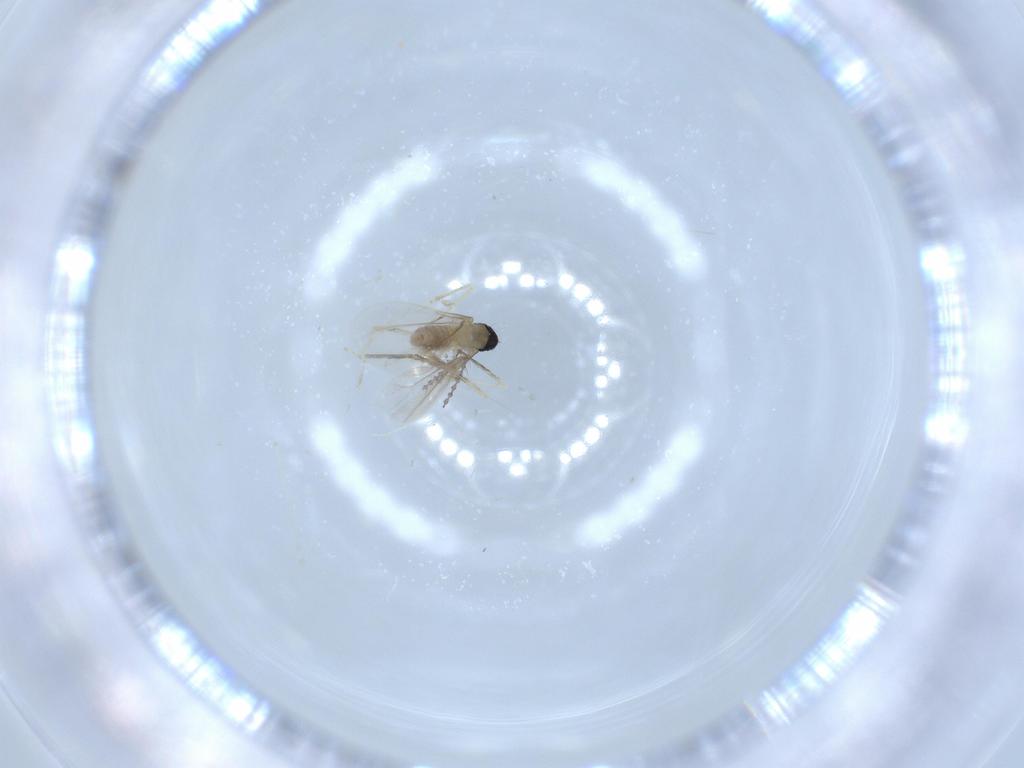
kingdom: Animalia
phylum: Arthropoda
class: Insecta
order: Diptera
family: Cecidomyiidae
